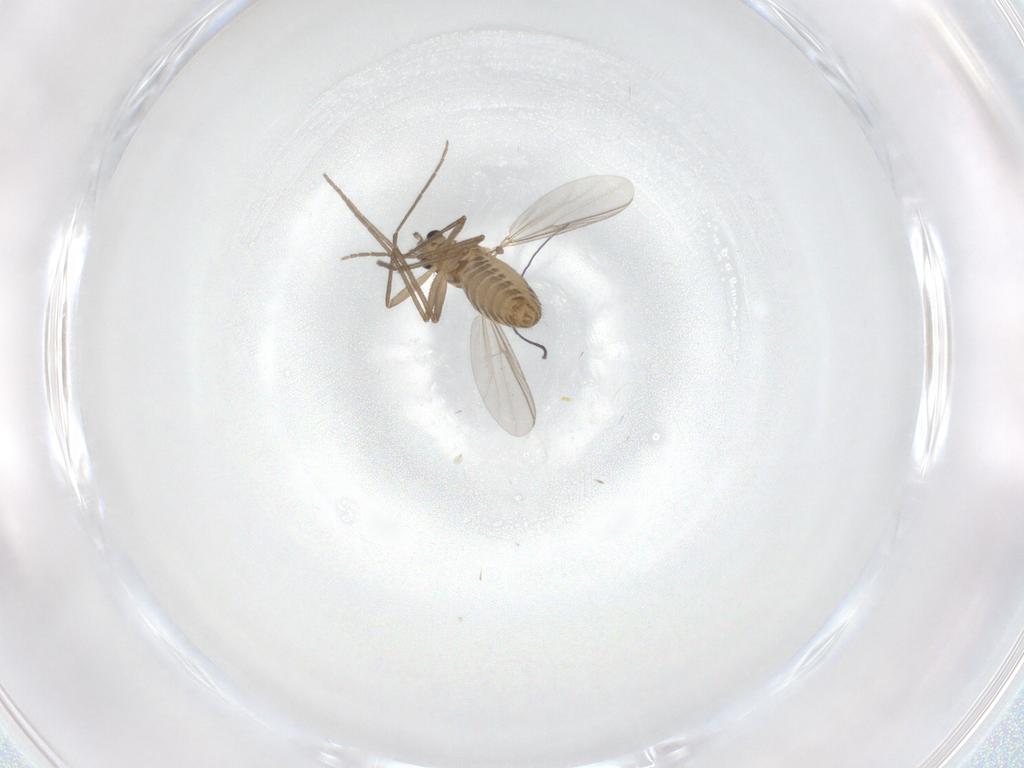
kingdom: Animalia
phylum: Arthropoda
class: Insecta
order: Diptera
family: Chironomidae
